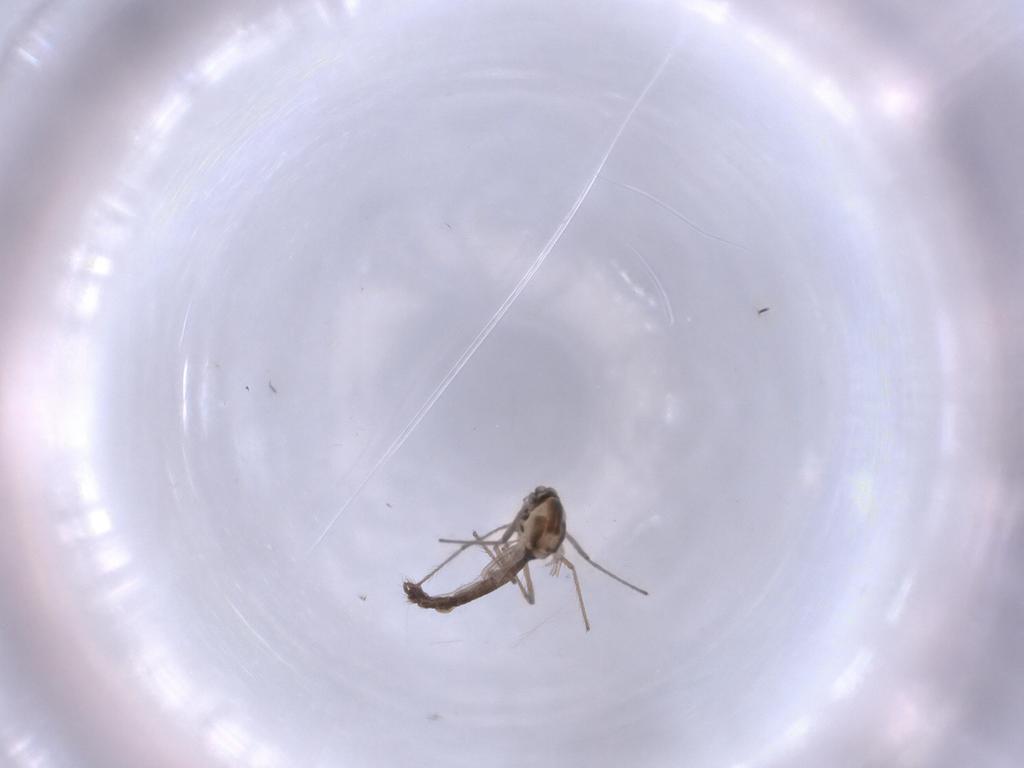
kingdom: Animalia
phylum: Arthropoda
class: Insecta
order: Diptera
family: Chironomidae
